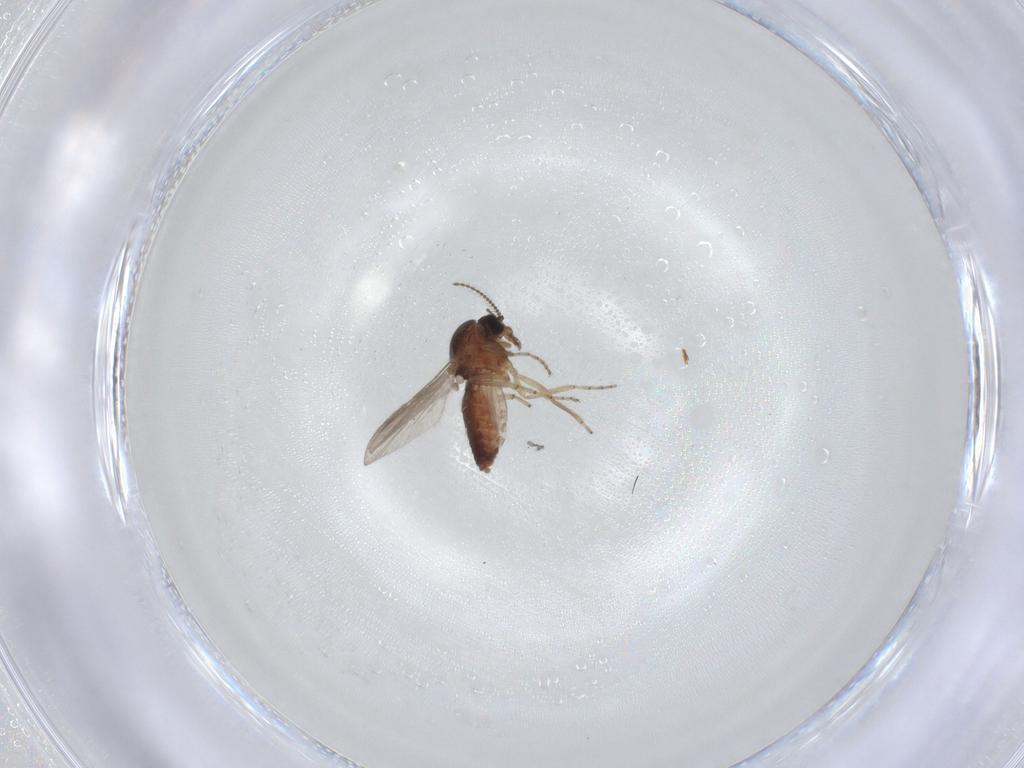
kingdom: Animalia
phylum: Arthropoda
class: Insecta
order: Diptera
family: Ceratopogonidae
